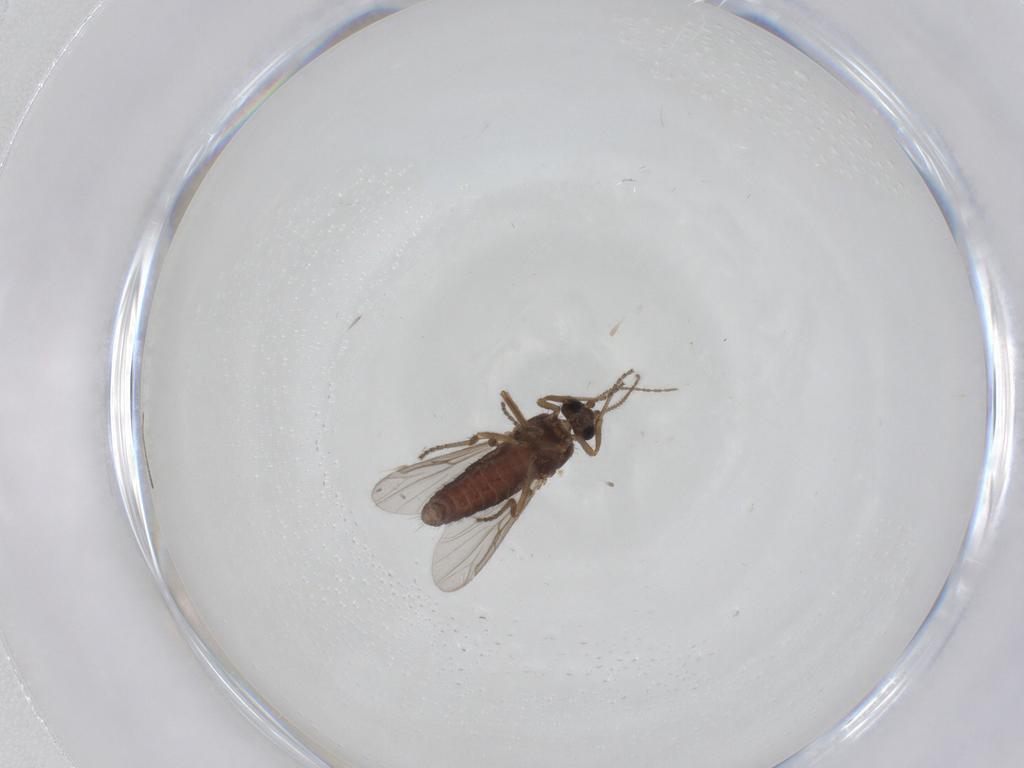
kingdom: Animalia
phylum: Arthropoda
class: Insecta
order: Diptera
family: Ceratopogonidae
